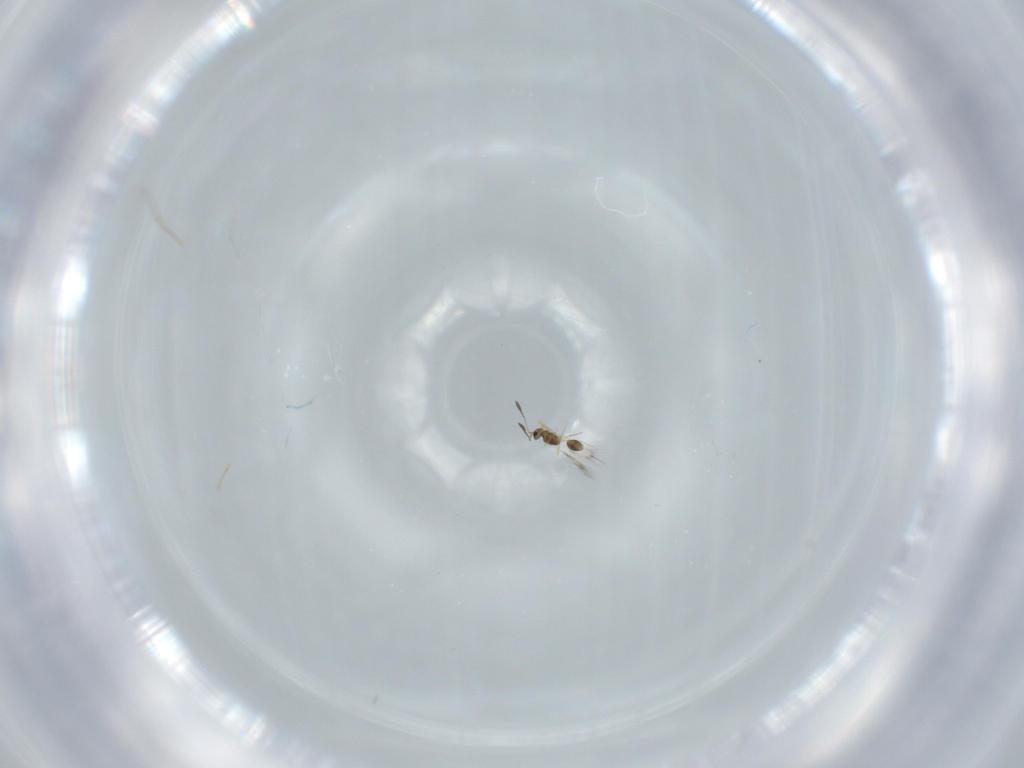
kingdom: Animalia
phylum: Arthropoda
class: Insecta
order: Hymenoptera
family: Mymarommatidae
